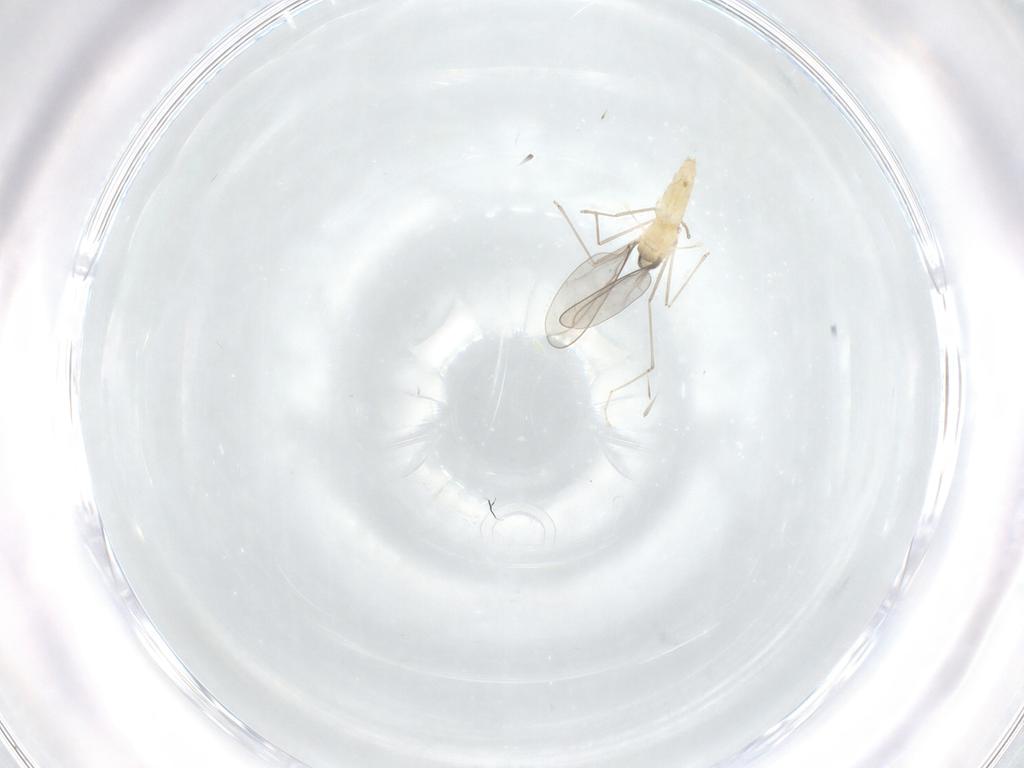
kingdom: Animalia
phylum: Arthropoda
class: Insecta
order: Diptera
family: Cecidomyiidae
